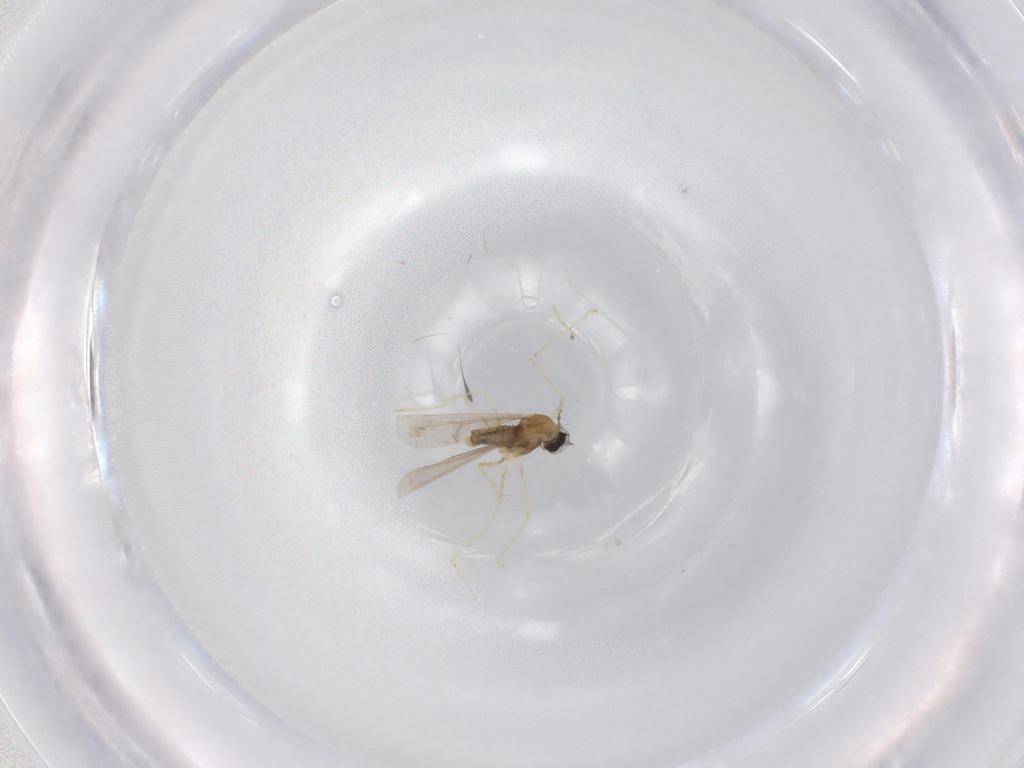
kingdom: Animalia
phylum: Arthropoda
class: Insecta
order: Diptera
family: Cecidomyiidae
